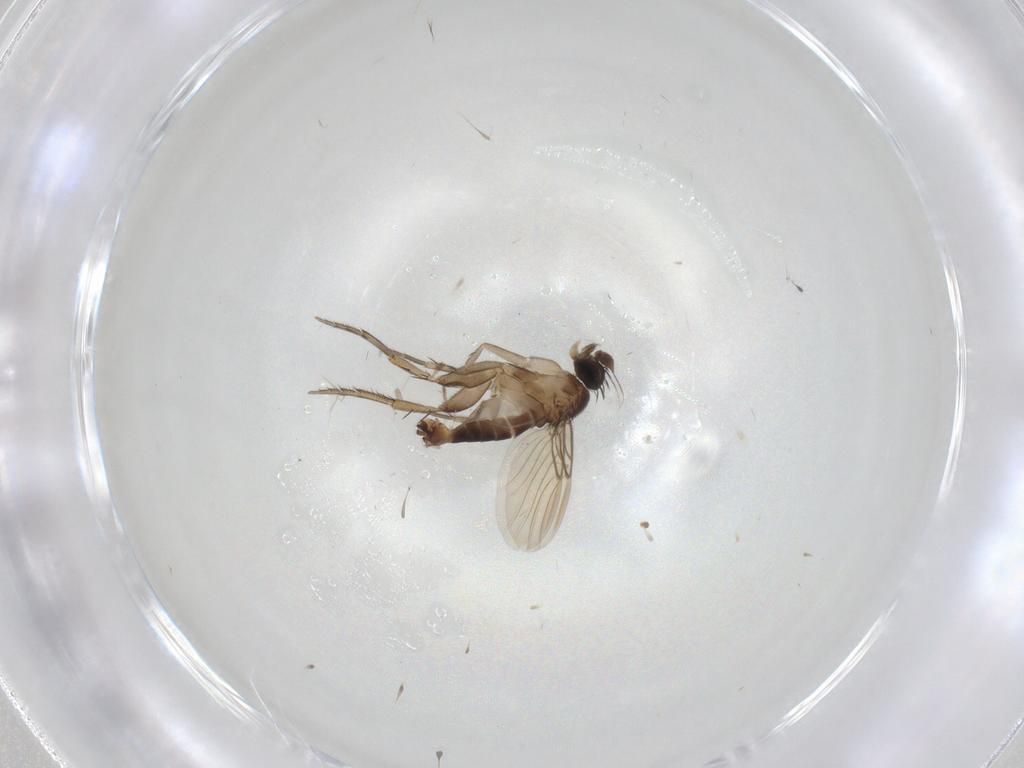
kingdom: Animalia
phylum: Arthropoda
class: Insecta
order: Diptera
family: Phoridae
